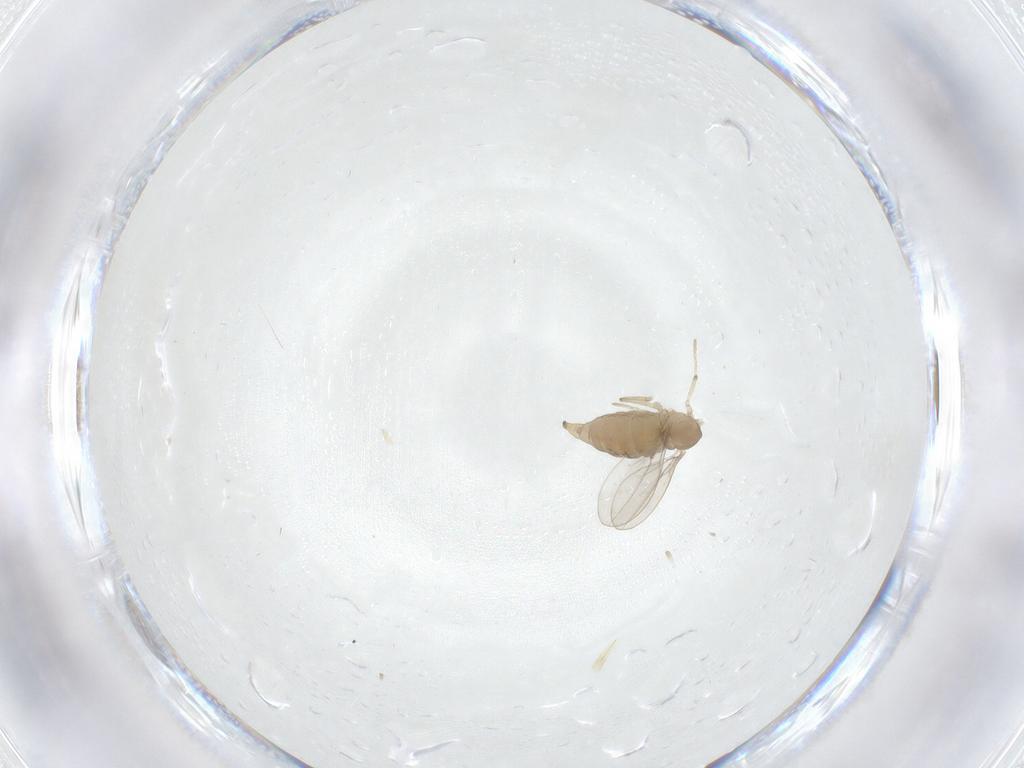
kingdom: Animalia
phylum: Arthropoda
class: Insecta
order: Diptera
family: Cecidomyiidae
